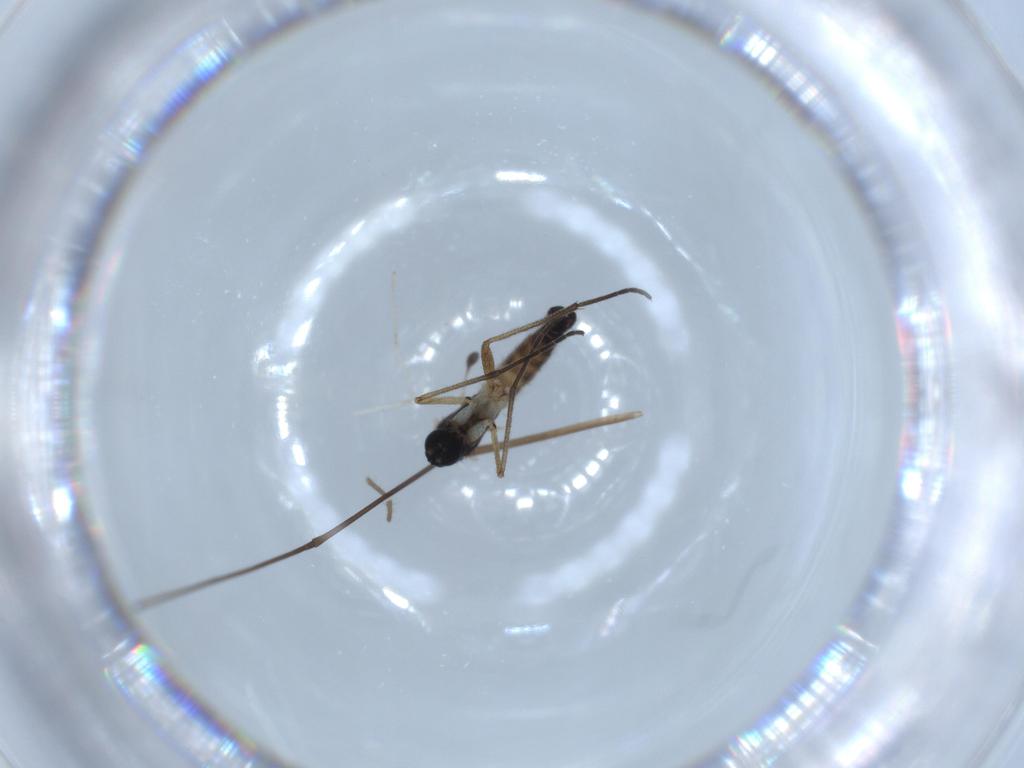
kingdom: Animalia
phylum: Arthropoda
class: Insecta
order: Diptera
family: Sciaridae
